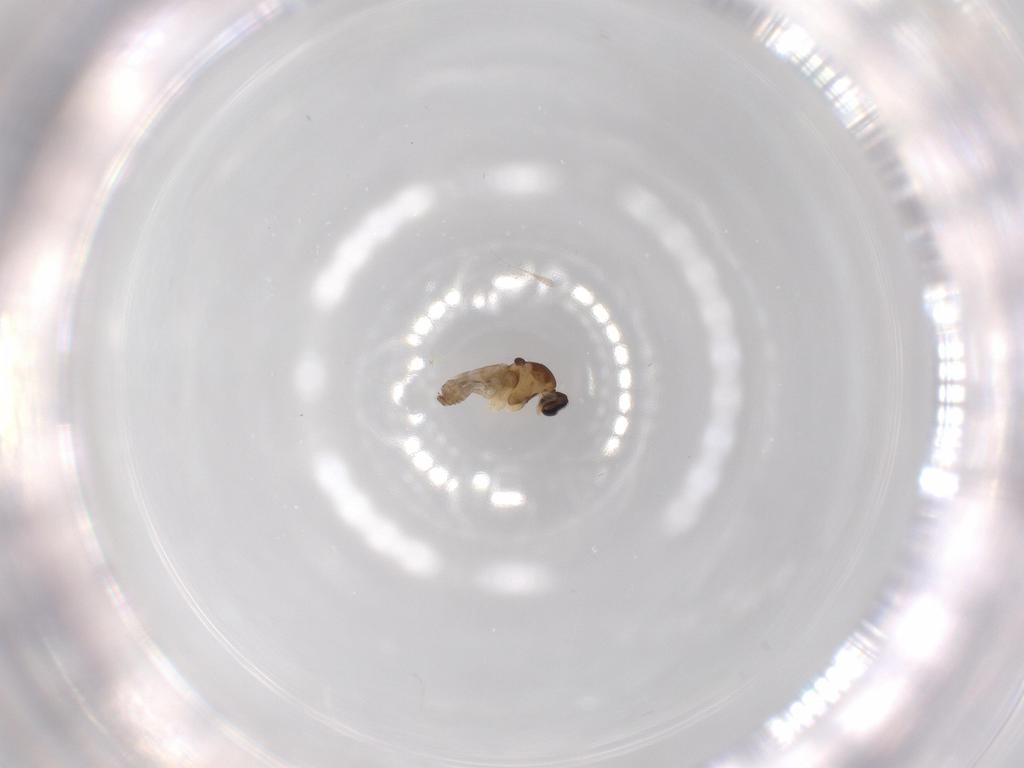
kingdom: Animalia
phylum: Arthropoda
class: Insecta
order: Diptera
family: Cecidomyiidae
